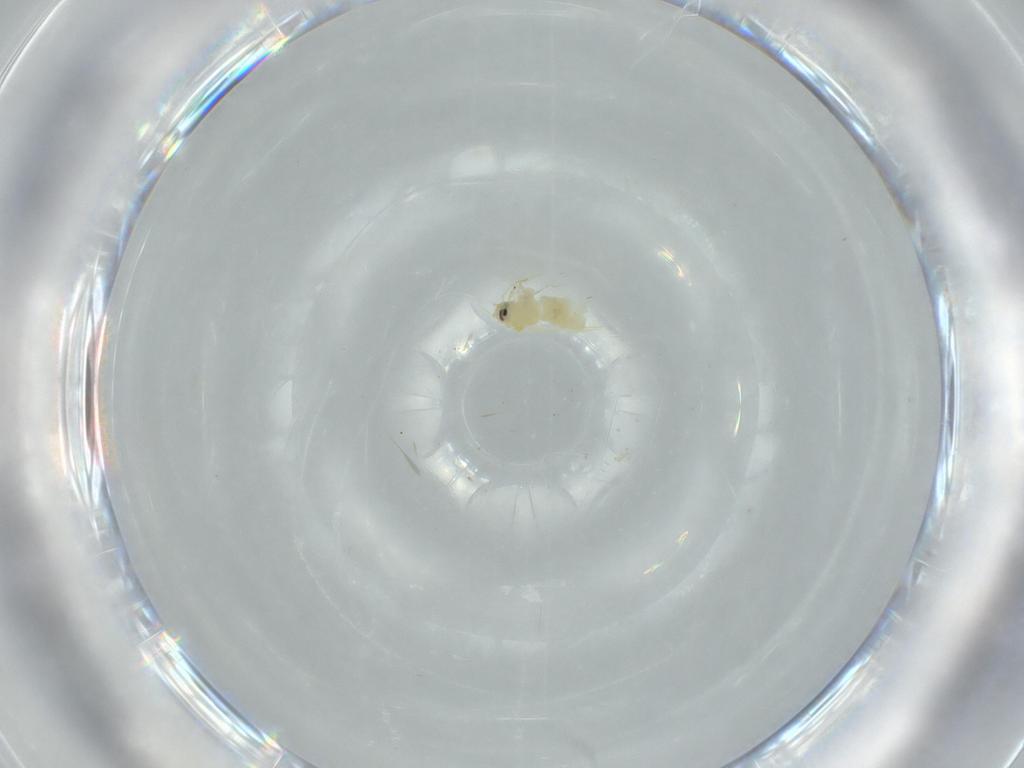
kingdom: Animalia
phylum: Arthropoda
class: Insecta
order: Hemiptera
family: Aleyrodidae
